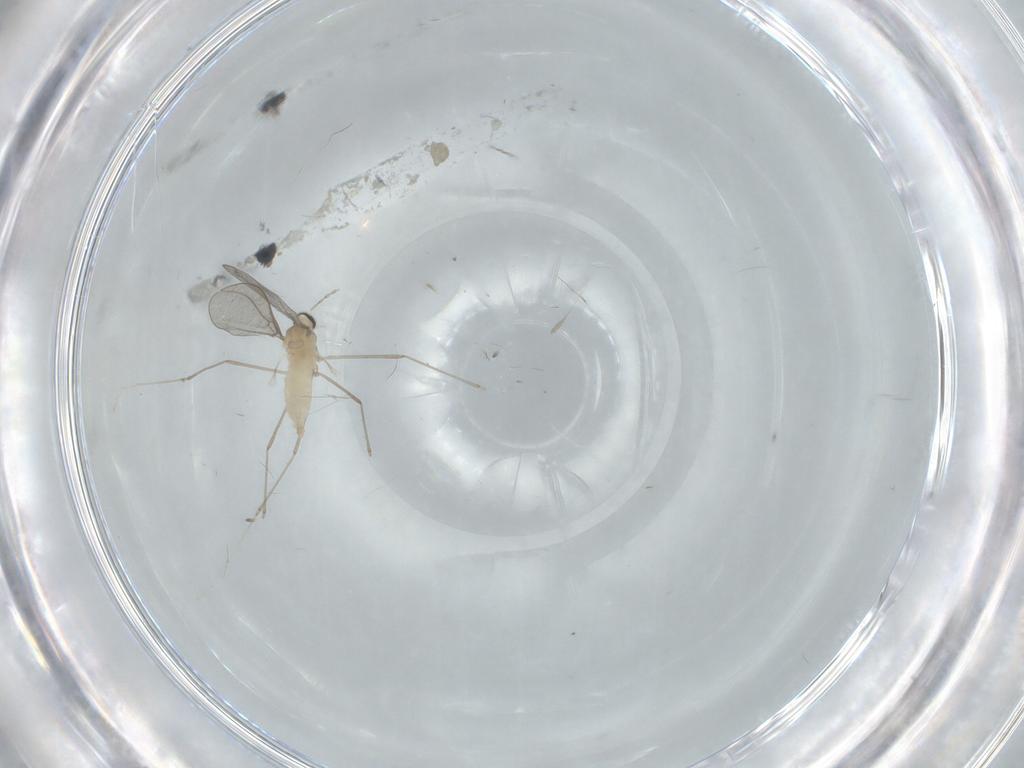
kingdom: Animalia
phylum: Arthropoda
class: Insecta
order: Diptera
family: Cecidomyiidae
